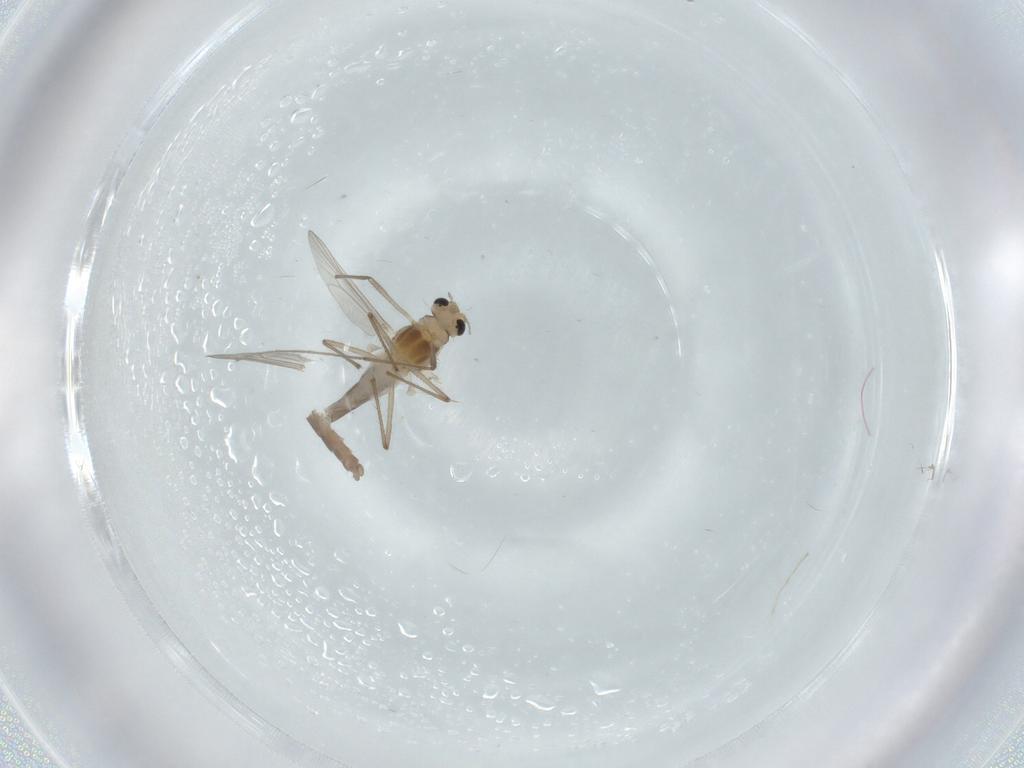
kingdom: Animalia
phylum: Arthropoda
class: Insecta
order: Diptera
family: Chironomidae
